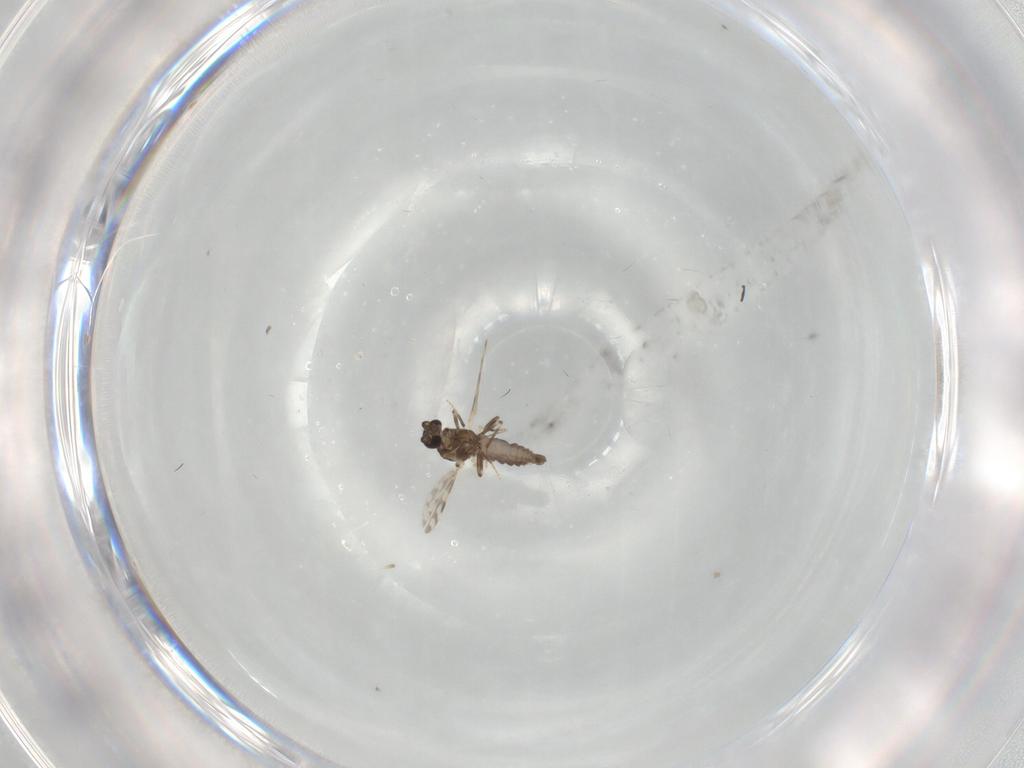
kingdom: Animalia
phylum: Arthropoda
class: Insecta
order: Diptera
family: Ceratopogonidae
